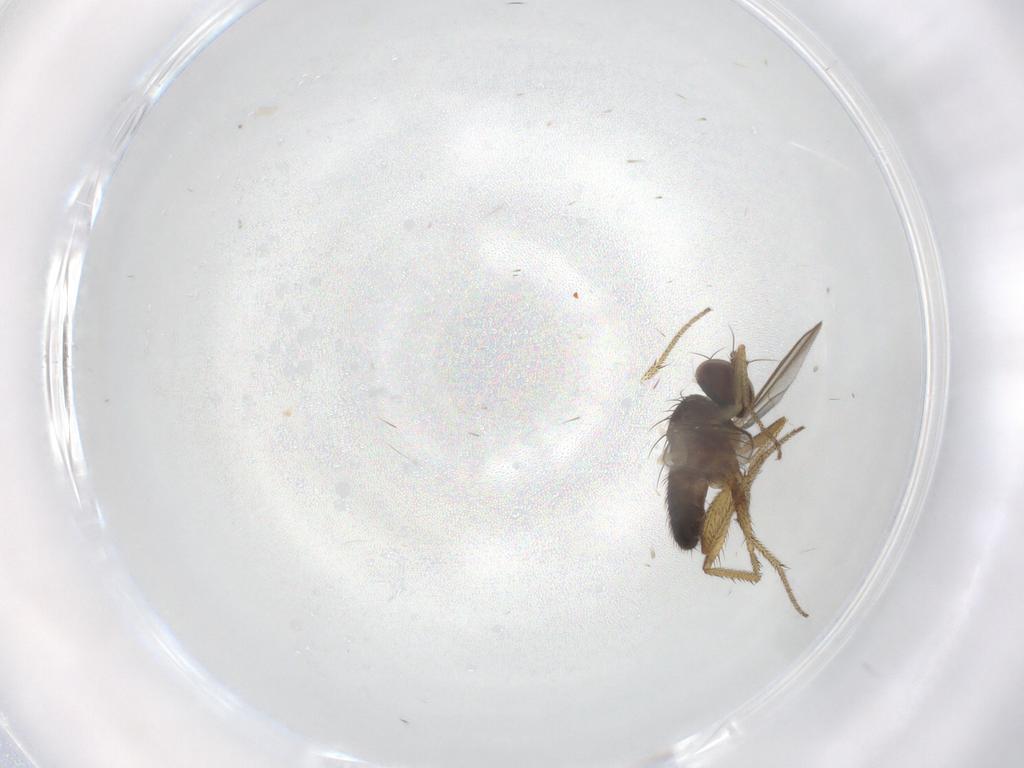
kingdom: Animalia
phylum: Arthropoda
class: Insecta
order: Diptera
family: Dolichopodidae
